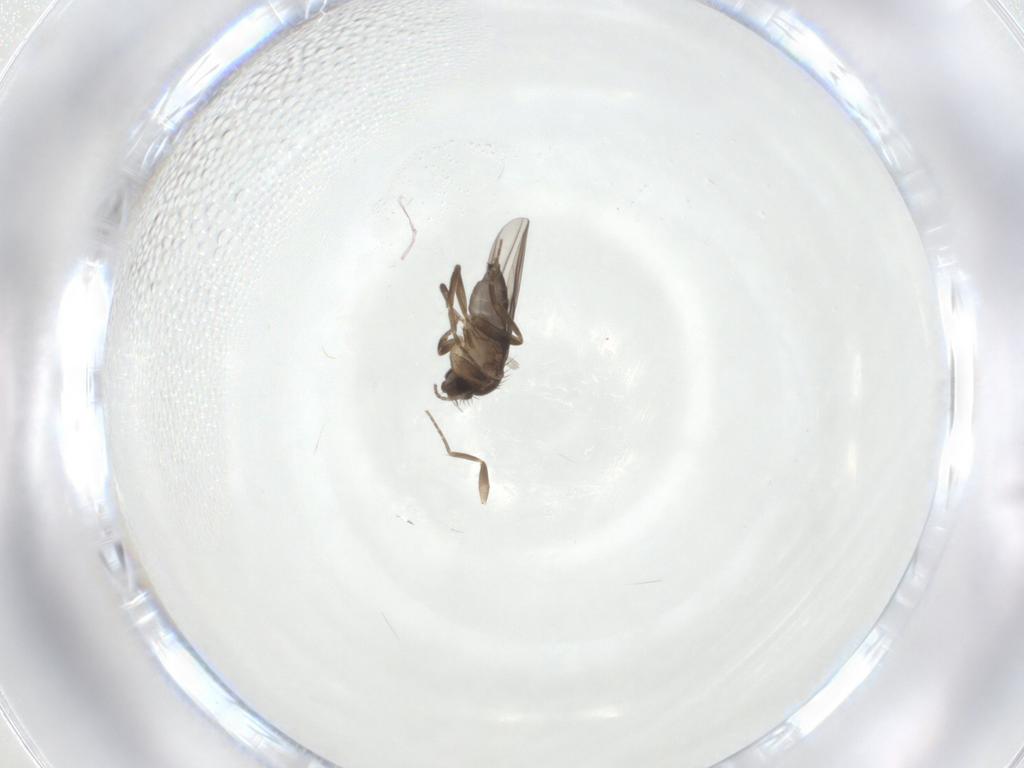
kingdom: Animalia
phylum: Arthropoda
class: Insecta
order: Diptera
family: Phoridae
